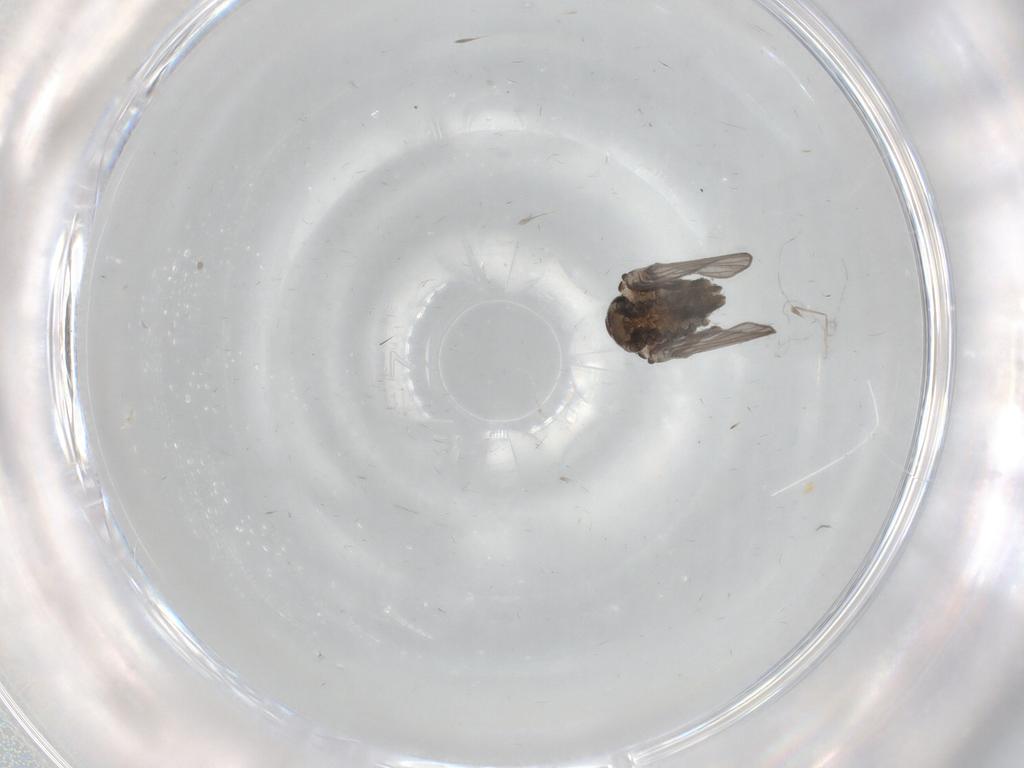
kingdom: Animalia
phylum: Arthropoda
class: Insecta
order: Diptera
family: Psychodidae
